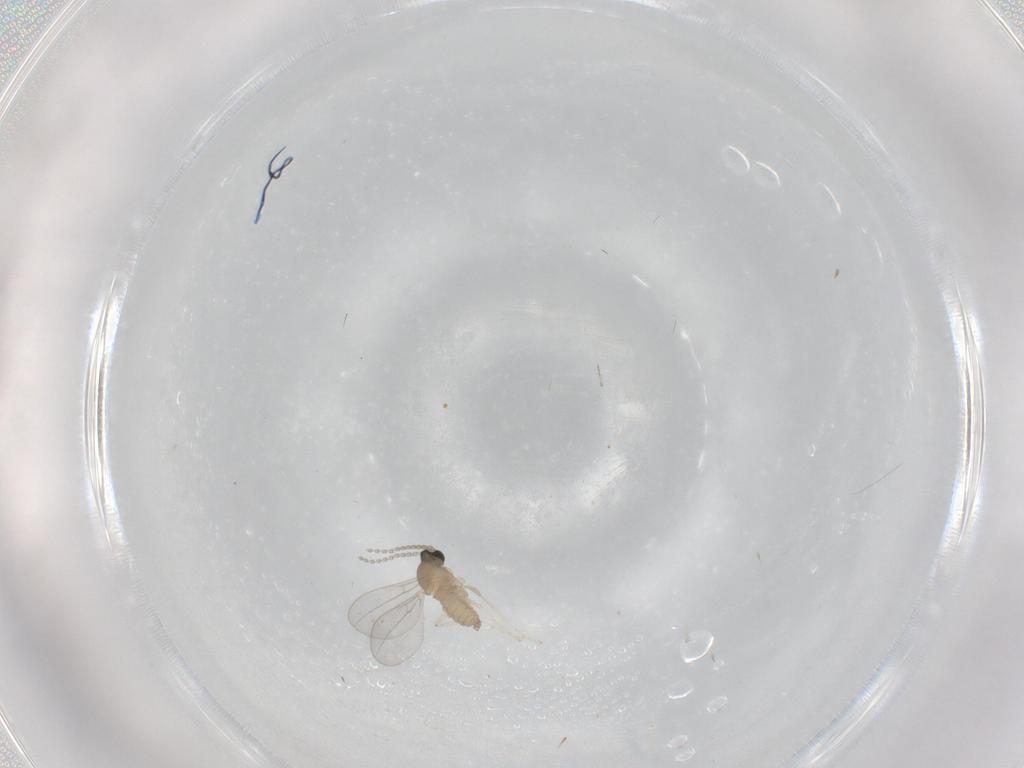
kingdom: Animalia
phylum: Arthropoda
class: Insecta
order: Diptera
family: Cecidomyiidae
